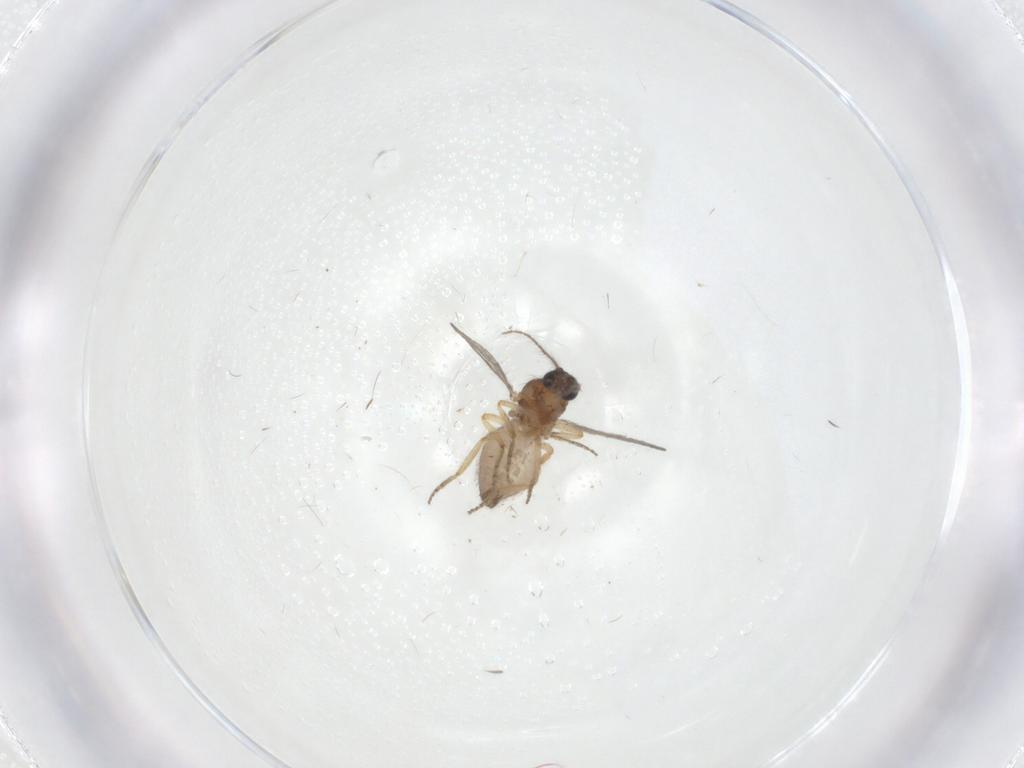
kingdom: Animalia
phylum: Arthropoda
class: Insecta
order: Diptera
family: Ceratopogonidae
